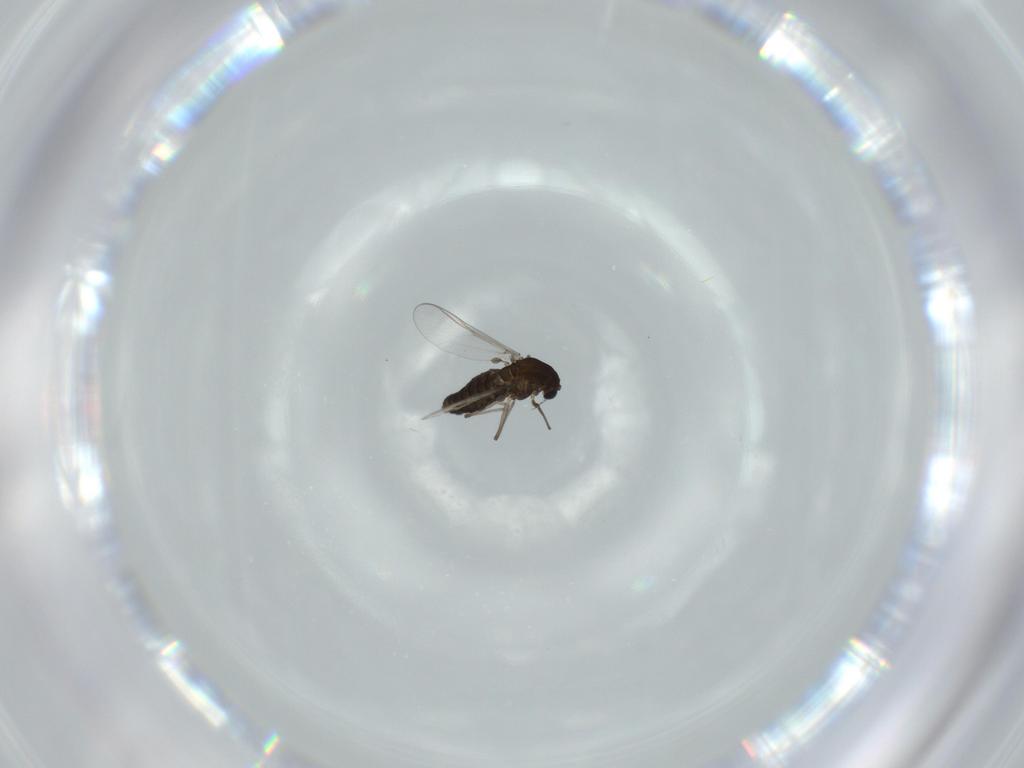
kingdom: Animalia
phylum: Arthropoda
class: Insecta
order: Diptera
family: Chironomidae
